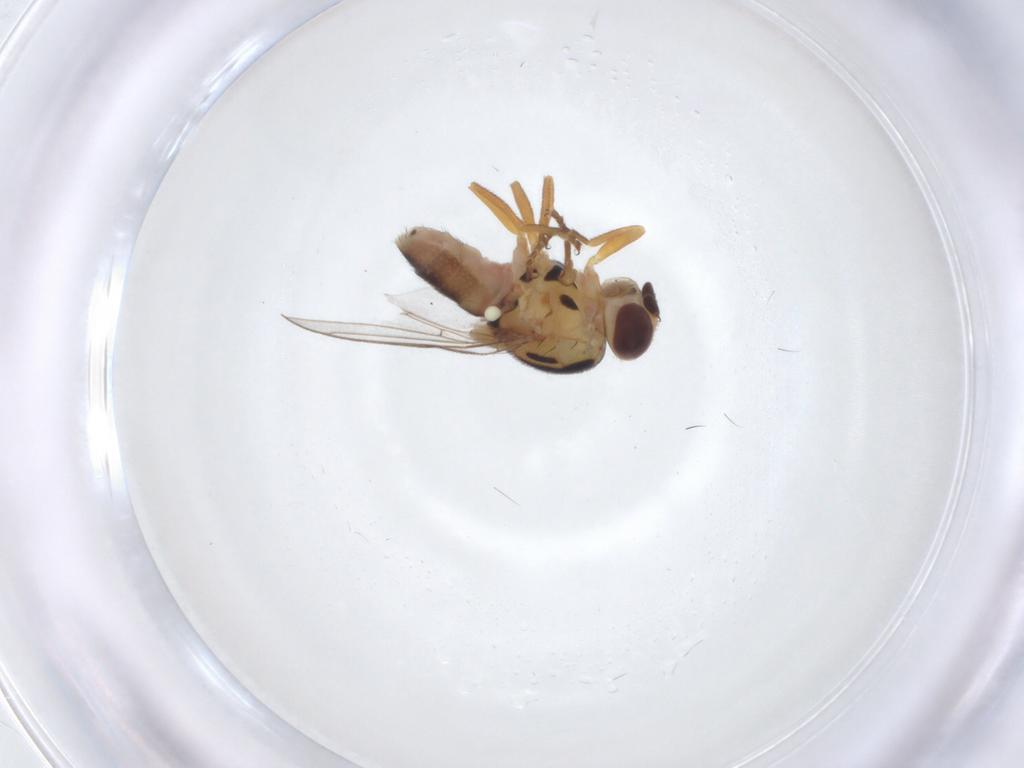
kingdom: Animalia
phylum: Arthropoda
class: Insecta
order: Diptera
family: Chloropidae
